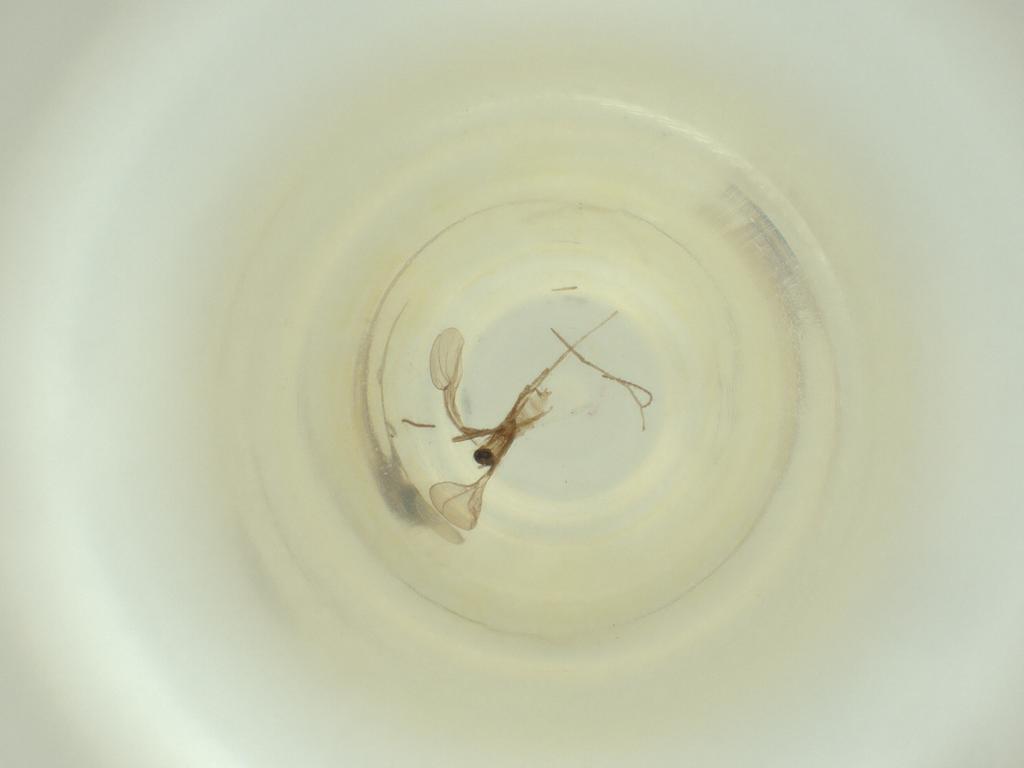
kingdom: Animalia
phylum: Arthropoda
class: Insecta
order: Diptera
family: Cecidomyiidae
